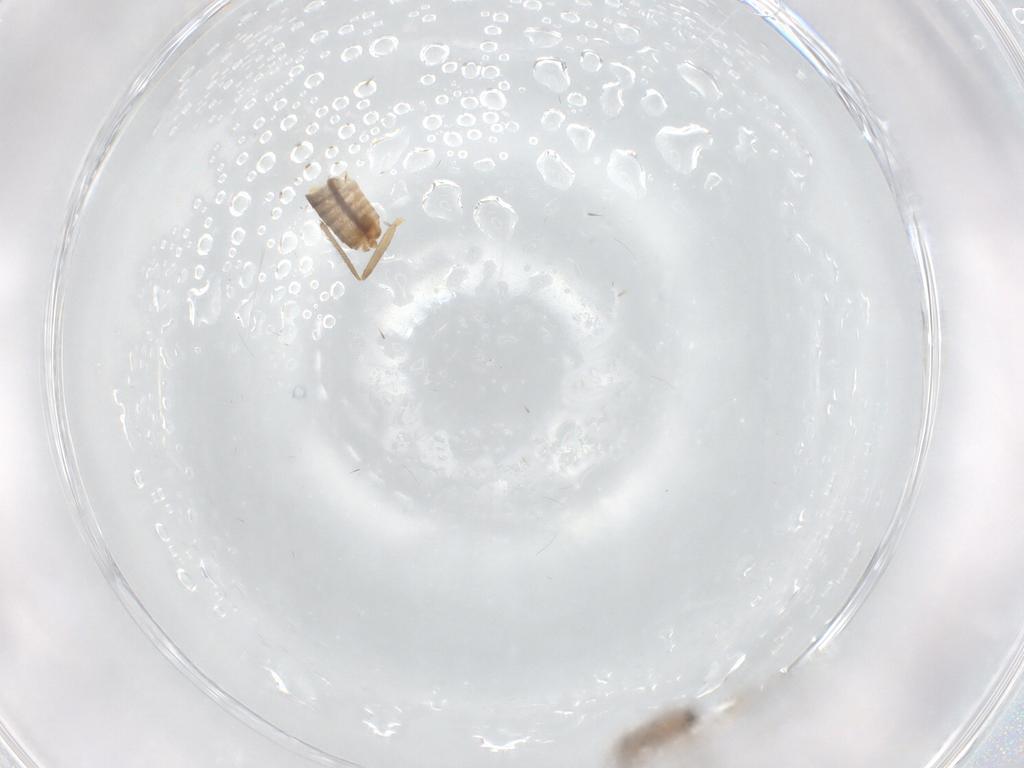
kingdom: Animalia
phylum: Arthropoda
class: Insecta
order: Diptera
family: Chironomidae
